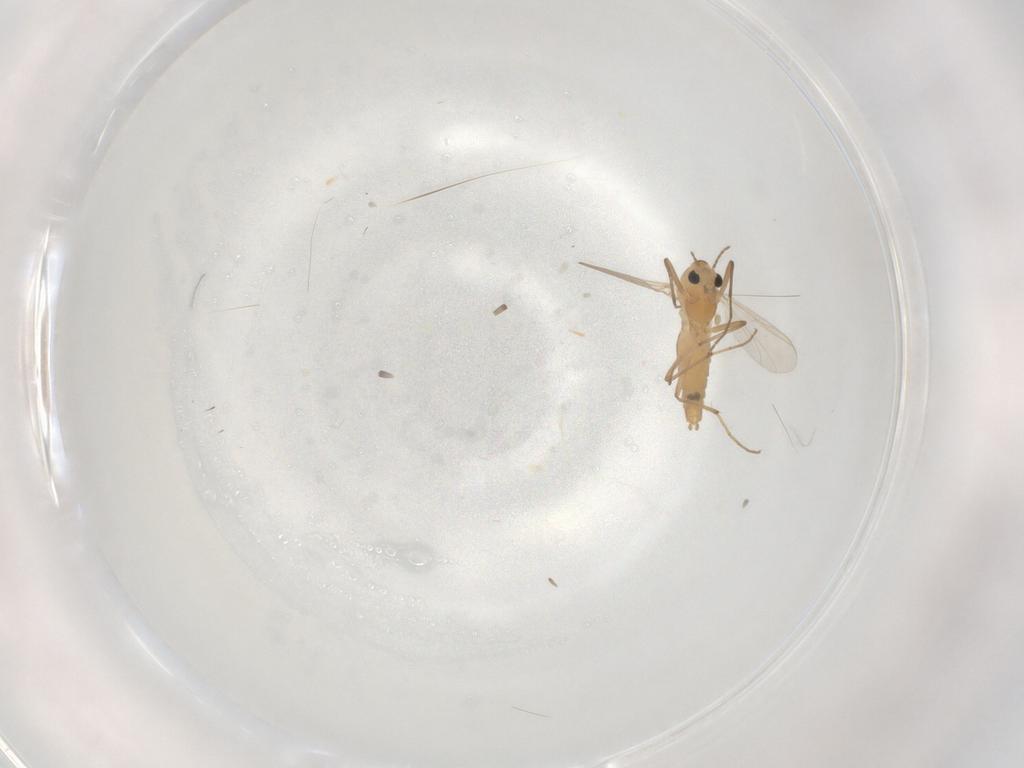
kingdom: Animalia
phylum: Arthropoda
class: Insecta
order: Diptera
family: Chironomidae
